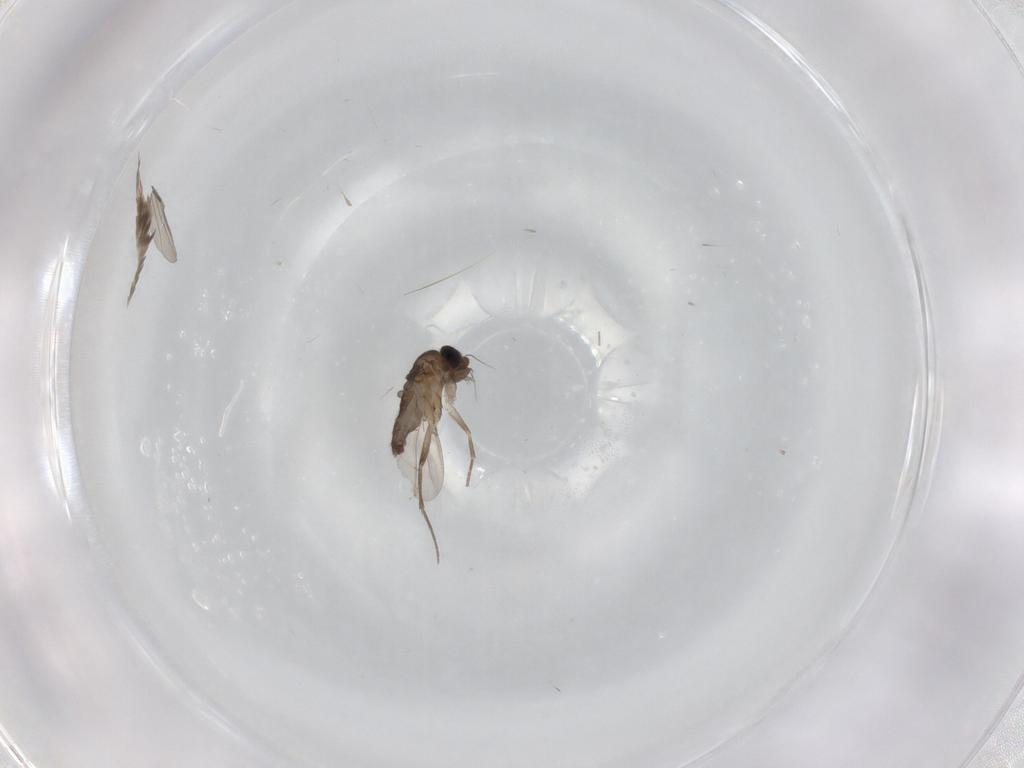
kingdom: Animalia
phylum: Arthropoda
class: Insecta
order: Diptera
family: Phoridae
